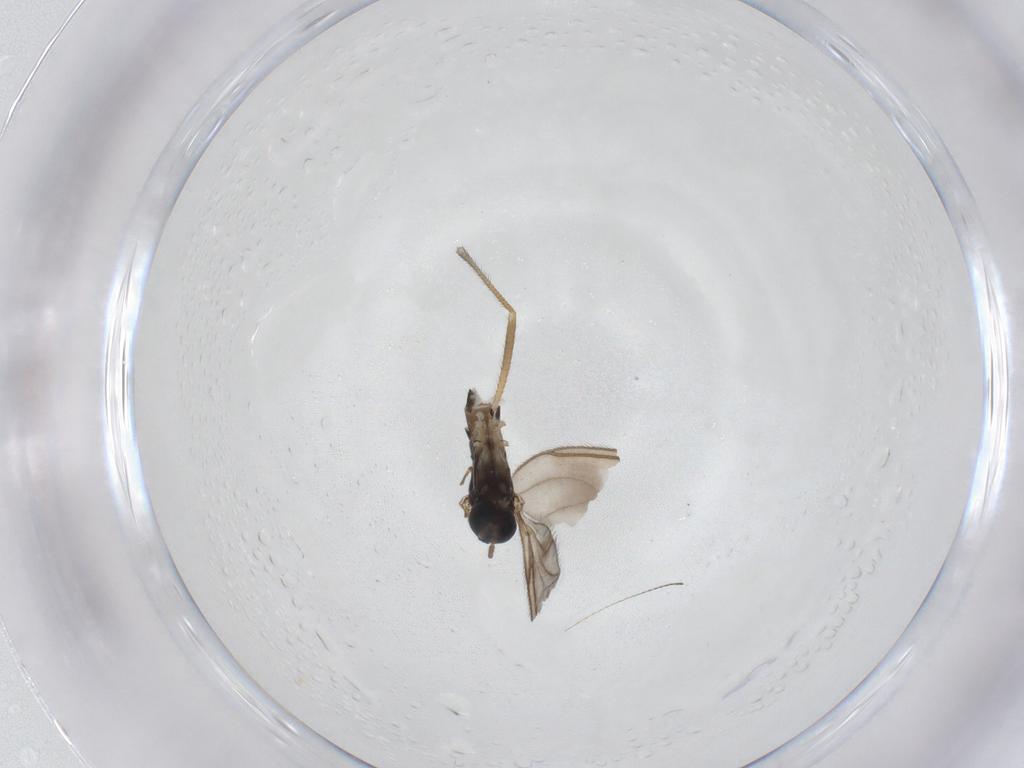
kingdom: Animalia
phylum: Arthropoda
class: Insecta
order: Diptera
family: Sciaridae
